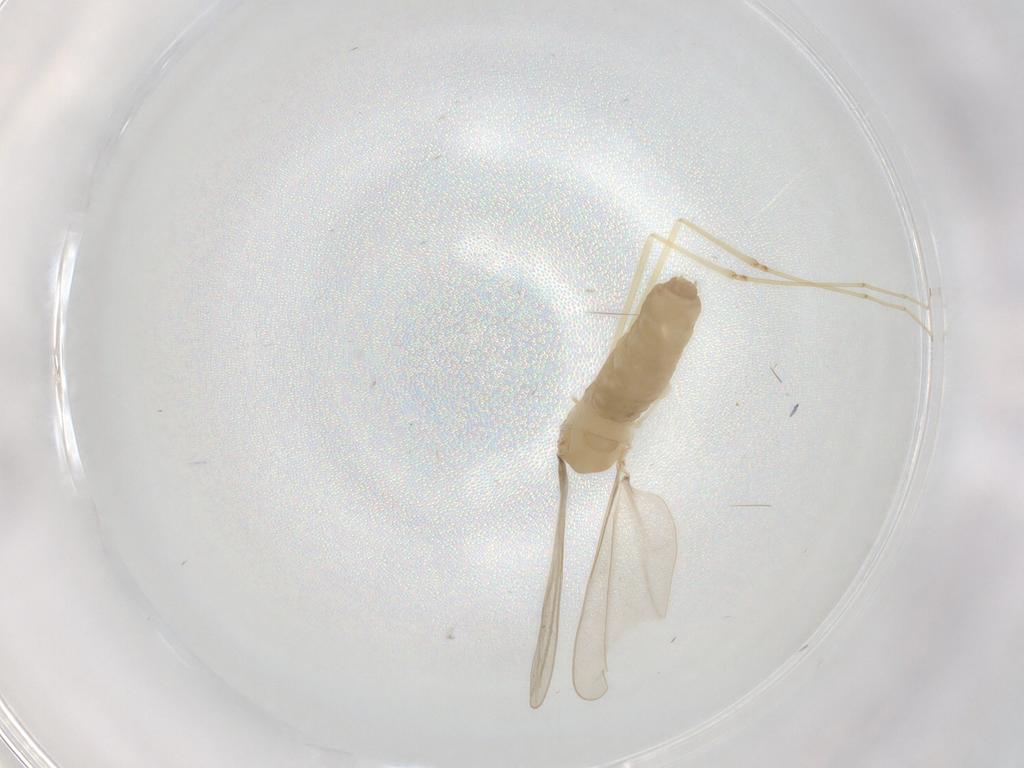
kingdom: Animalia
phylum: Arthropoda
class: Insecta
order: Diptera
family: Cecidomyiidae
